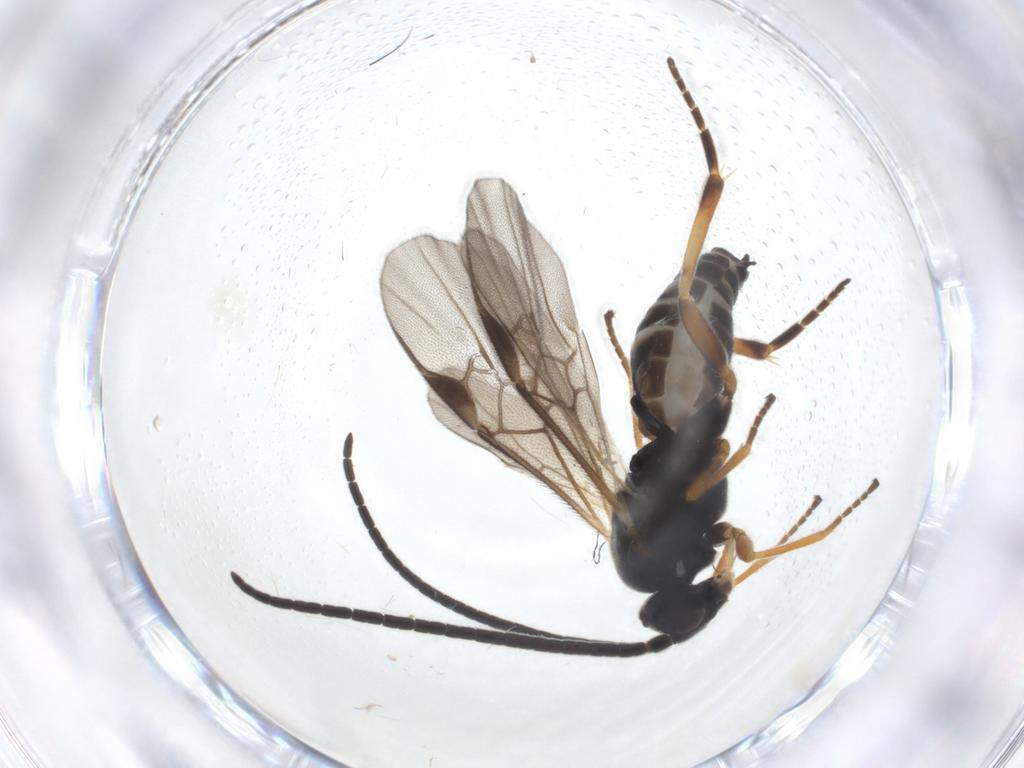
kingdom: Animalia
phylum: Arthropoda
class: Insecta
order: Hymenoptera
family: Braconidae
